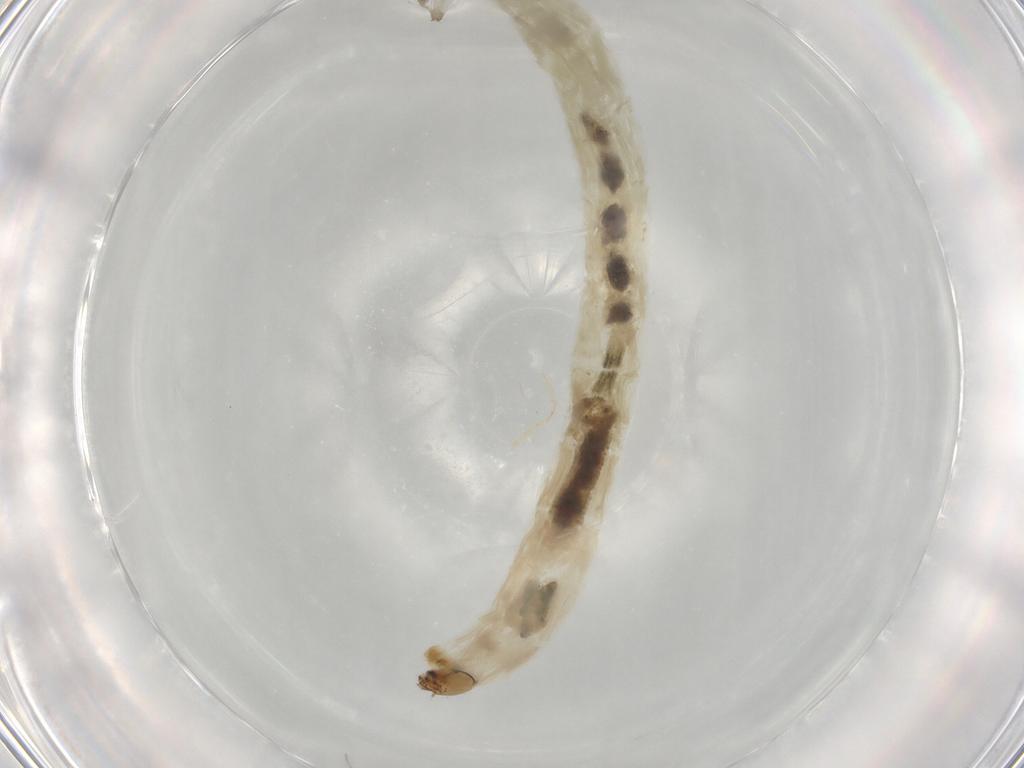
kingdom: Animalia
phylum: Arthropoda
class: Insecta
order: Diptera
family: Chironomidae
